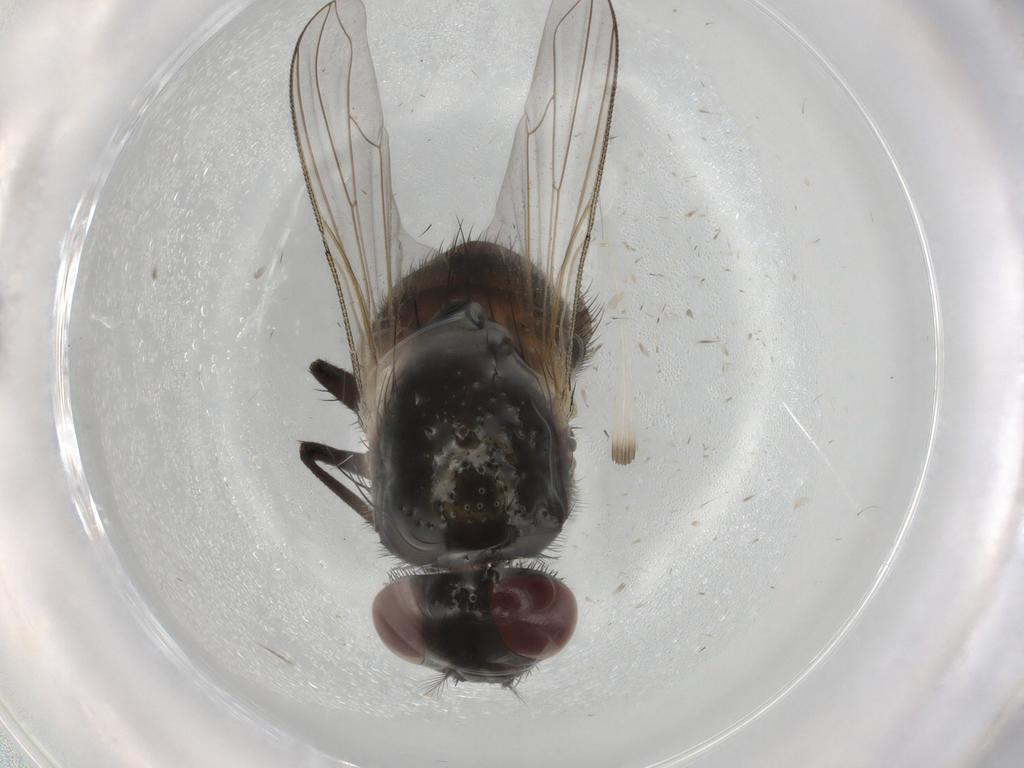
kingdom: Animalia
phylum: Arthropoda
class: Insecta
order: Diptera
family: Muscidae
